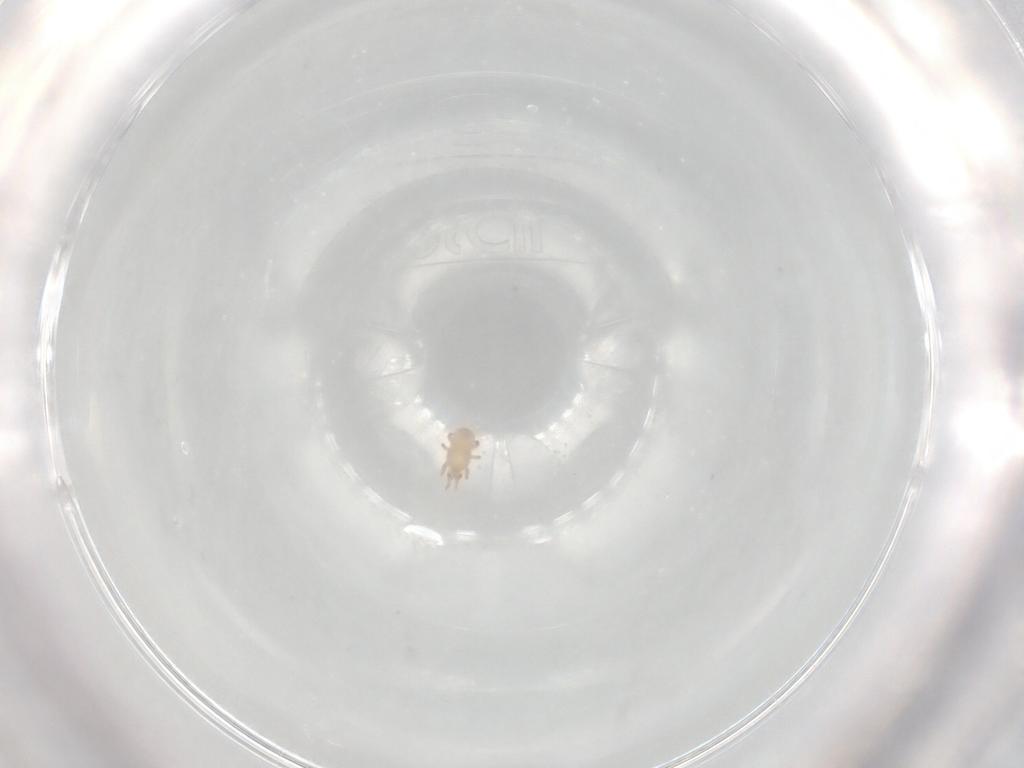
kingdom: Animalia
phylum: Arthropoda
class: Arachnida
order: Mesostigmata
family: Digamasellidae
